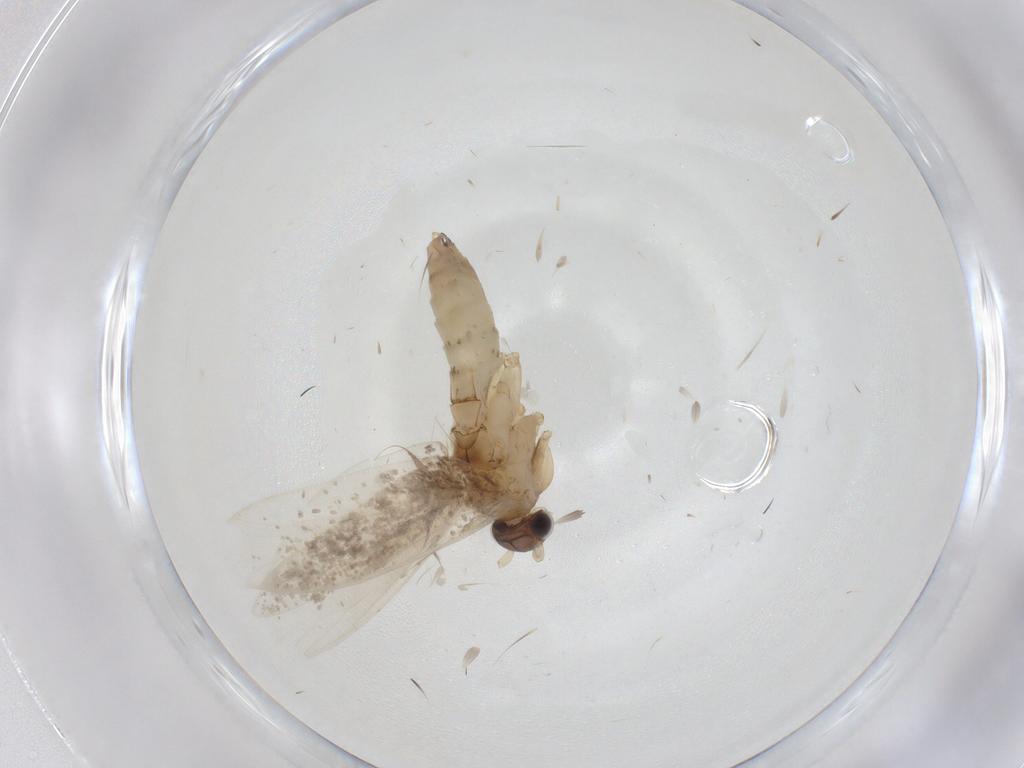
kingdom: Animalia
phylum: Arthropoda
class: Insecta
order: Lepidoptera
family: Tineidae
